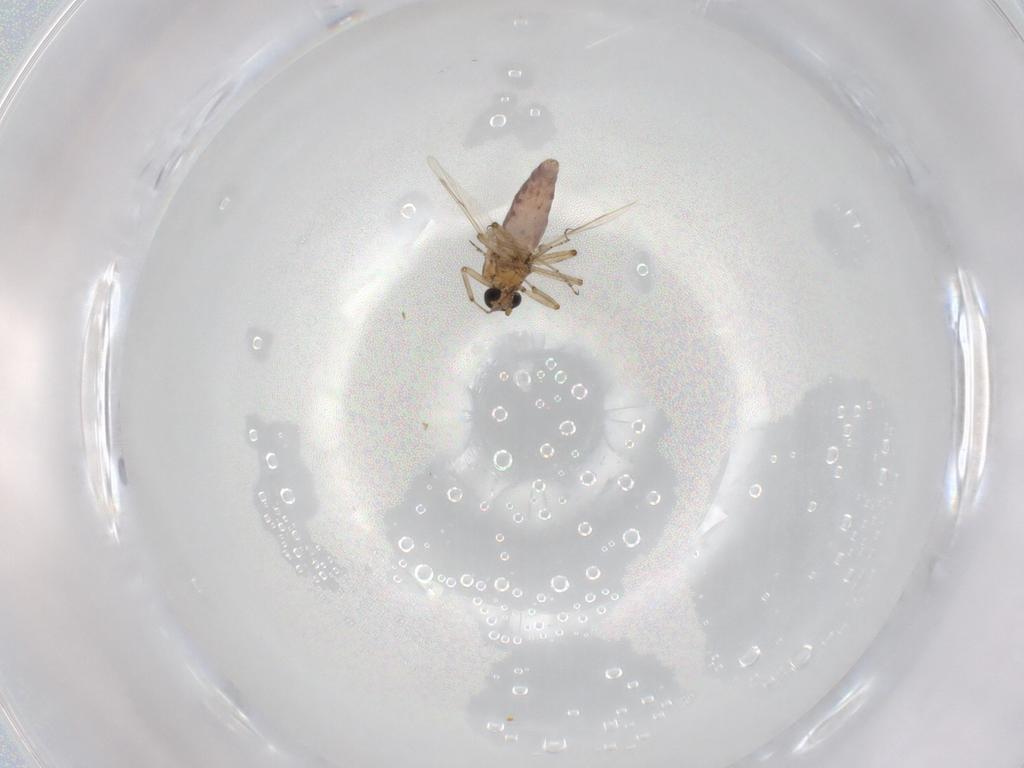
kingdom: Animalia
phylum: Arthropoda
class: Insecta
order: Diptera
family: Ceratopogonidae
